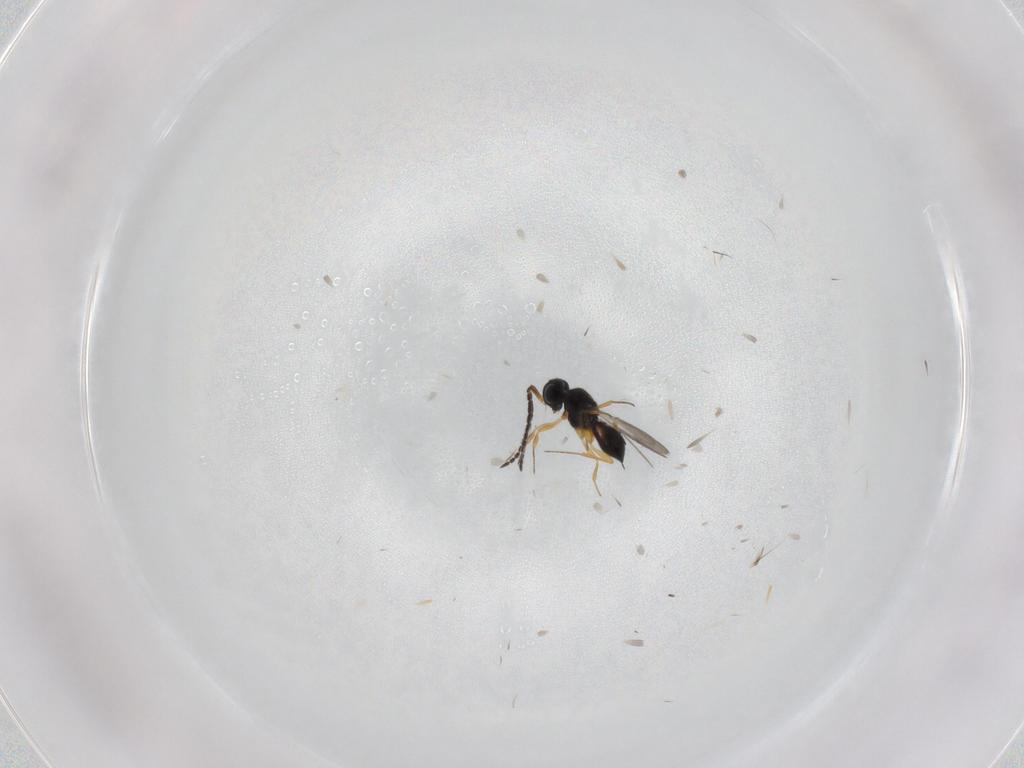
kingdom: Animalia
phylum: Arthropoda
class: Insecta
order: Hymenoptera
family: Scelionidae
